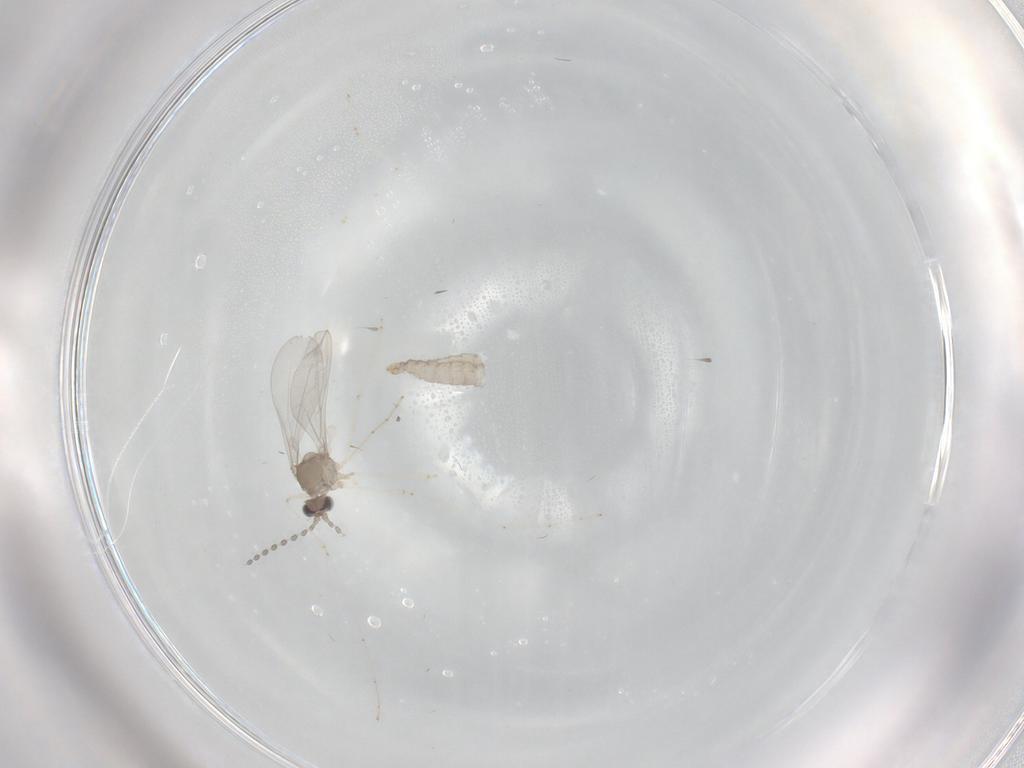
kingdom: Animalia
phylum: Arthropoda
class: Insecta
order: Diptera
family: Cecidomyiidae
